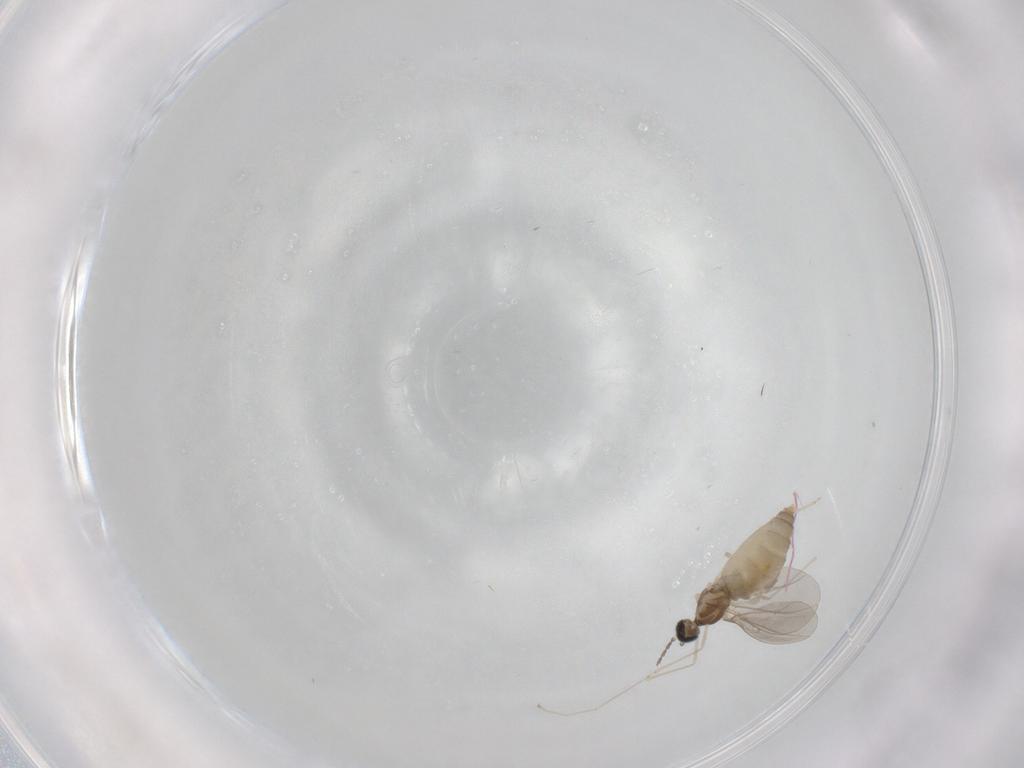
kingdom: Animalia
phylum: Arthropoda
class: Insecta
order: Diptera
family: Cecidomyiidae
